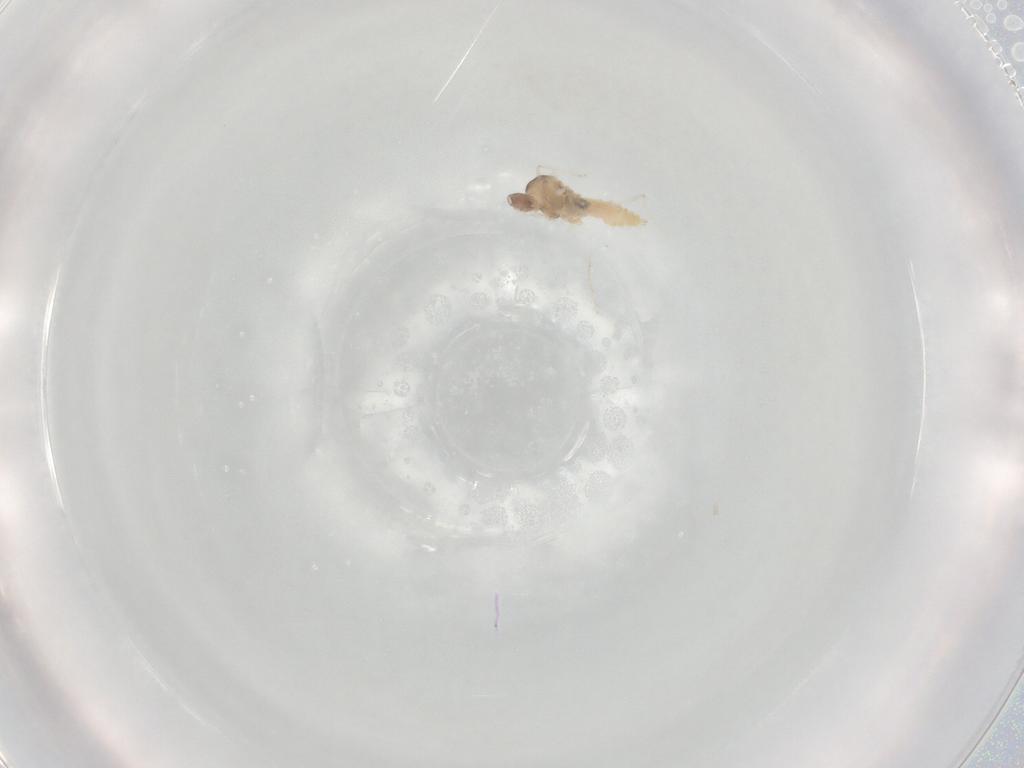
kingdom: Animalia
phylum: Arthropoda
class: Insecta
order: Diptera
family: Cecidomyiidae
